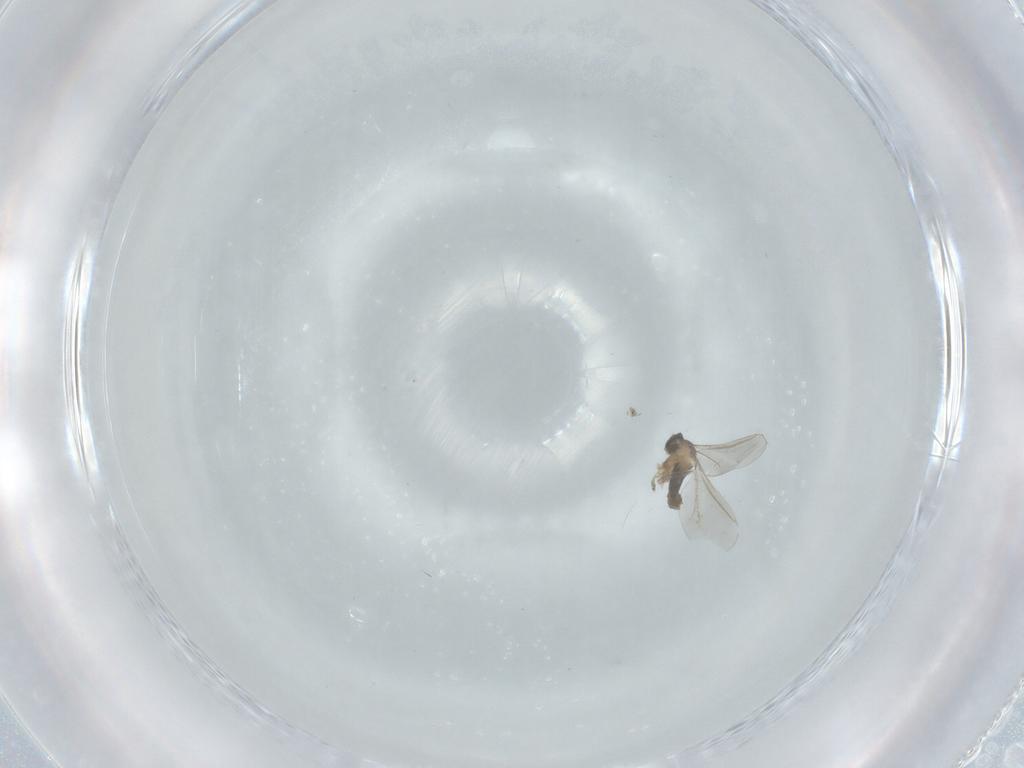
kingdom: Animalia
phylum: Arthropoda
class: Insecta
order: Diptera
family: Cecidomyiidae
